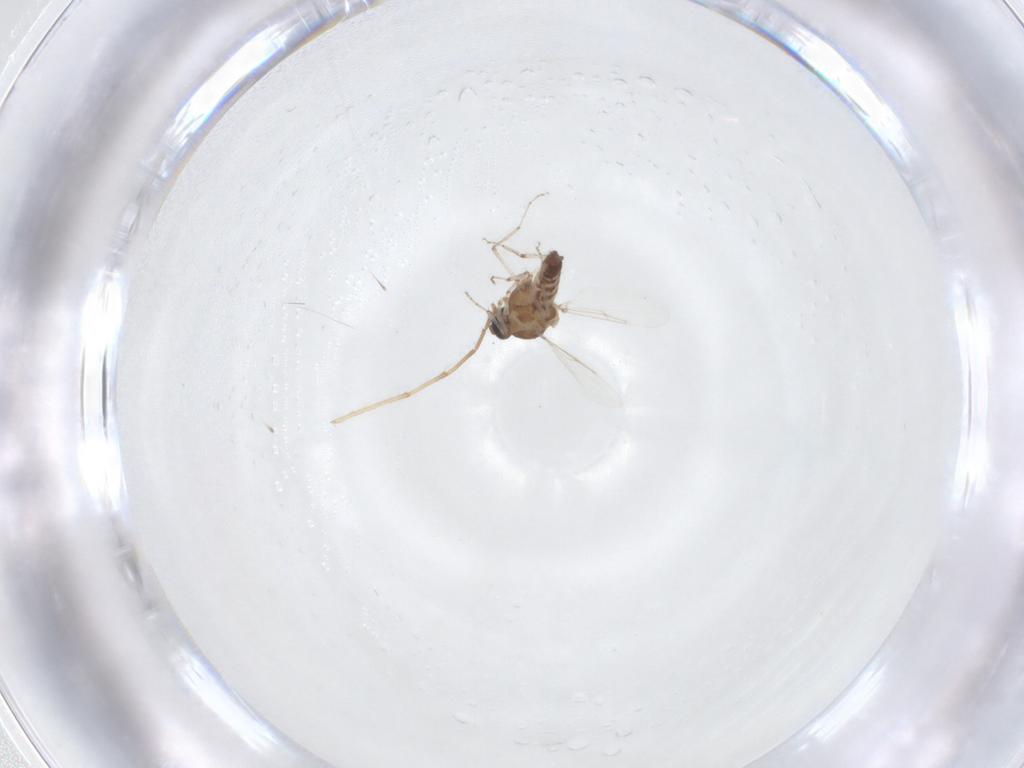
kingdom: Animalia
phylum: Arthropoda
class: Insecta
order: Diptera
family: Chironomidae
